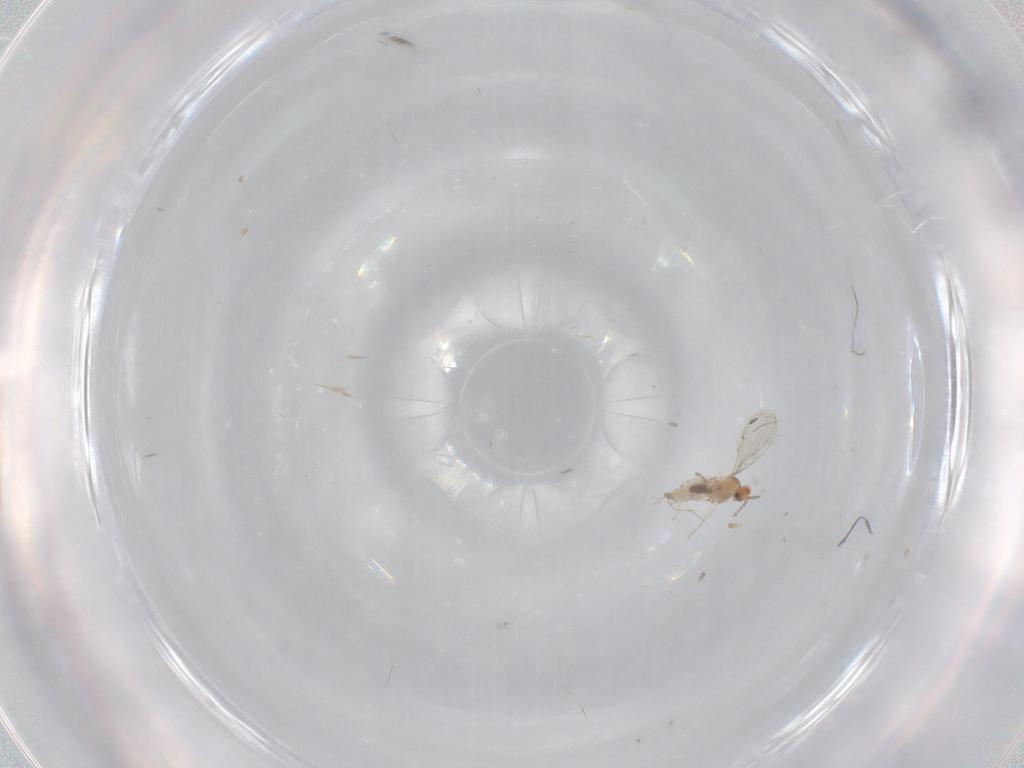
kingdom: Animalia
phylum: Arthropoda
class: Insecta
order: Diptera
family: Cecidomyiidae
